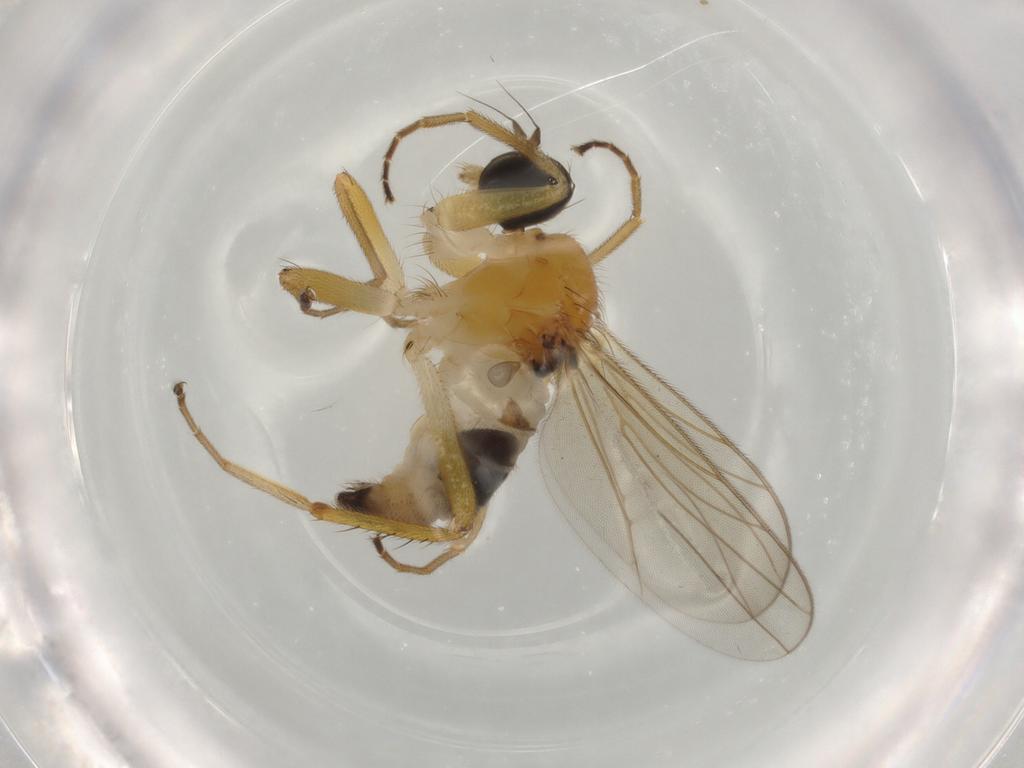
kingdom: Animalia
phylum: Arthropoda
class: Insecta
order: Diptera
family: Hybotidae
